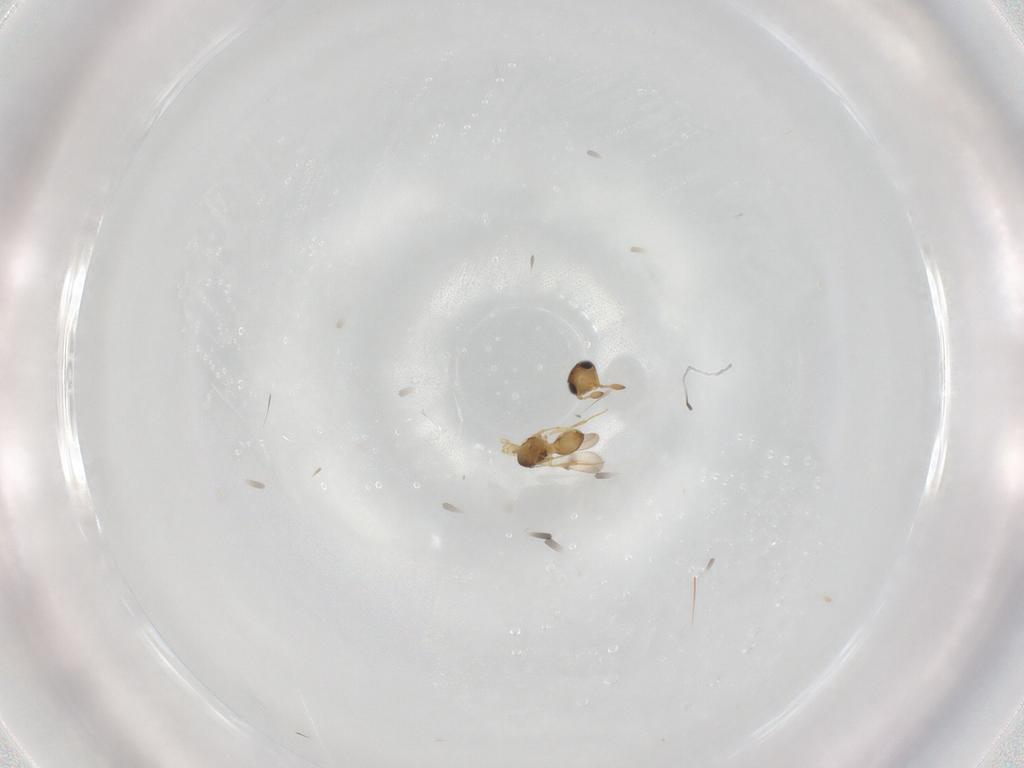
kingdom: Animalia
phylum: Arthropoda
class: Insecta
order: Hymenoptera
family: Scelionidae
